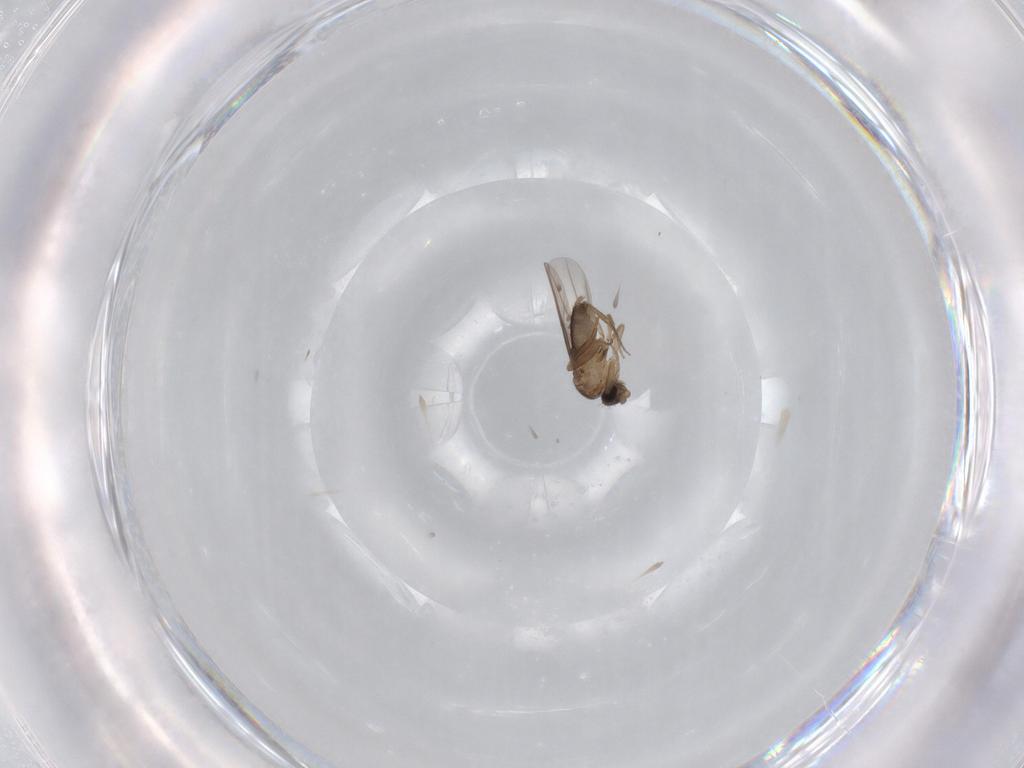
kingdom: Animalia
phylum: Arthropoda
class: Insecta
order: Diptera
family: Phoridae
